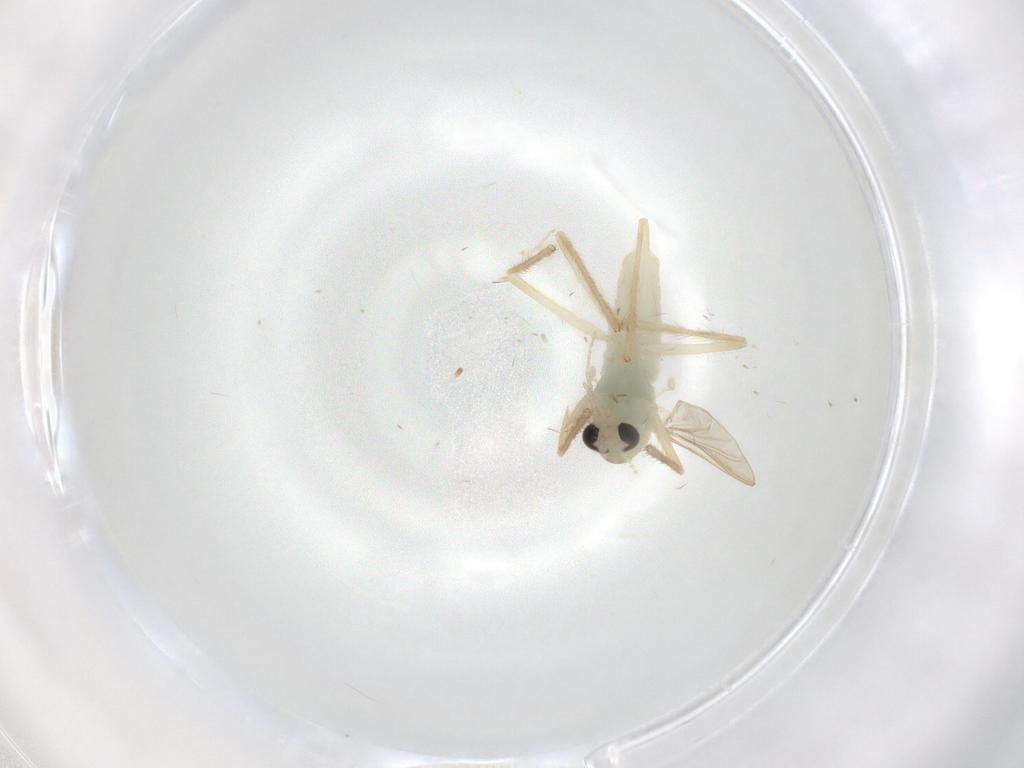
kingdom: Animalia
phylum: Arthropoda
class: Insecta
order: Diptera
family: Chironomidae
